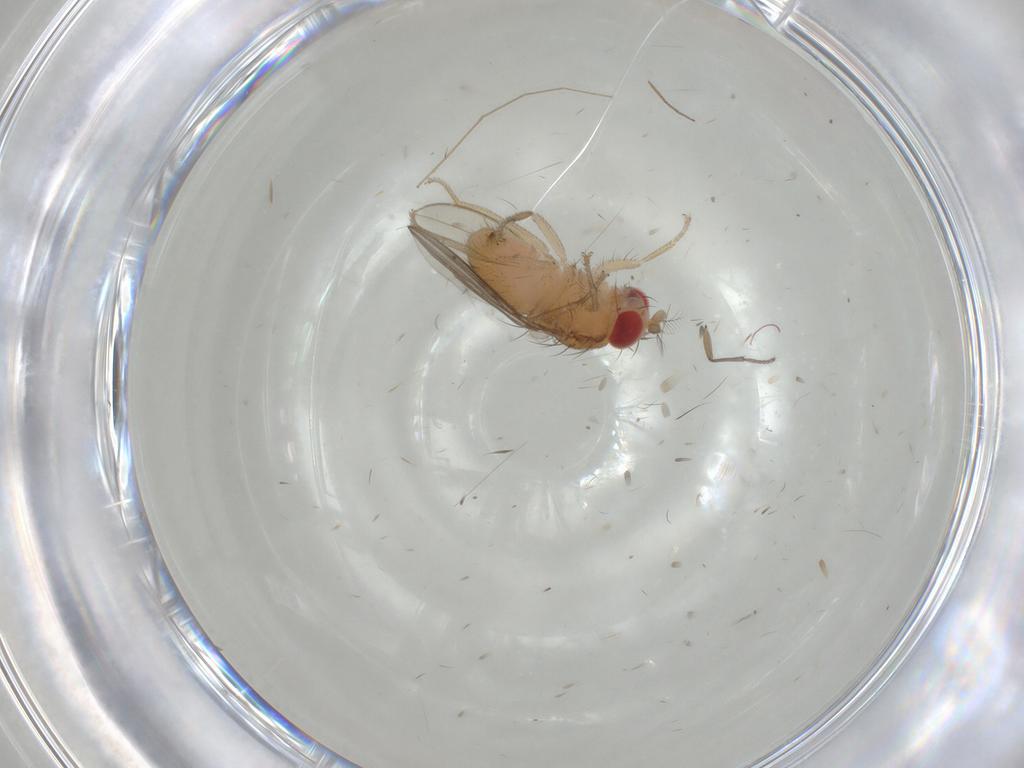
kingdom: Animalia
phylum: Arthropoda
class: Insecta
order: Diptera
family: Drosophilidae
